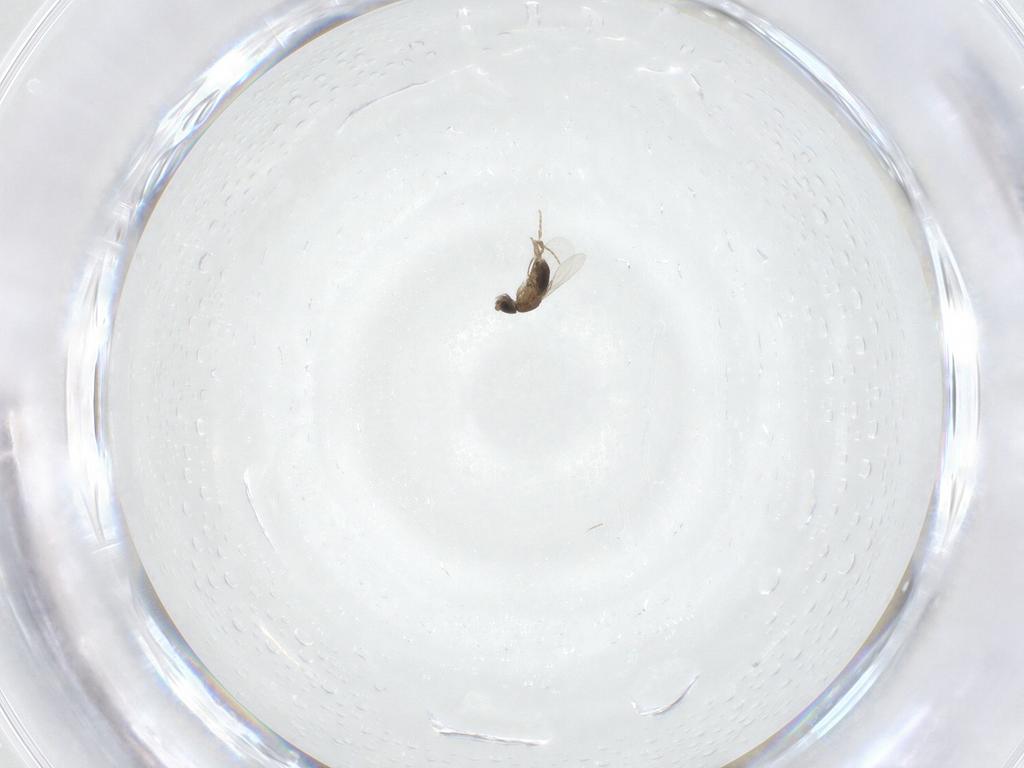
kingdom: Animalia
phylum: Arthropoda
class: Insecta
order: Diptera
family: Phoridae
